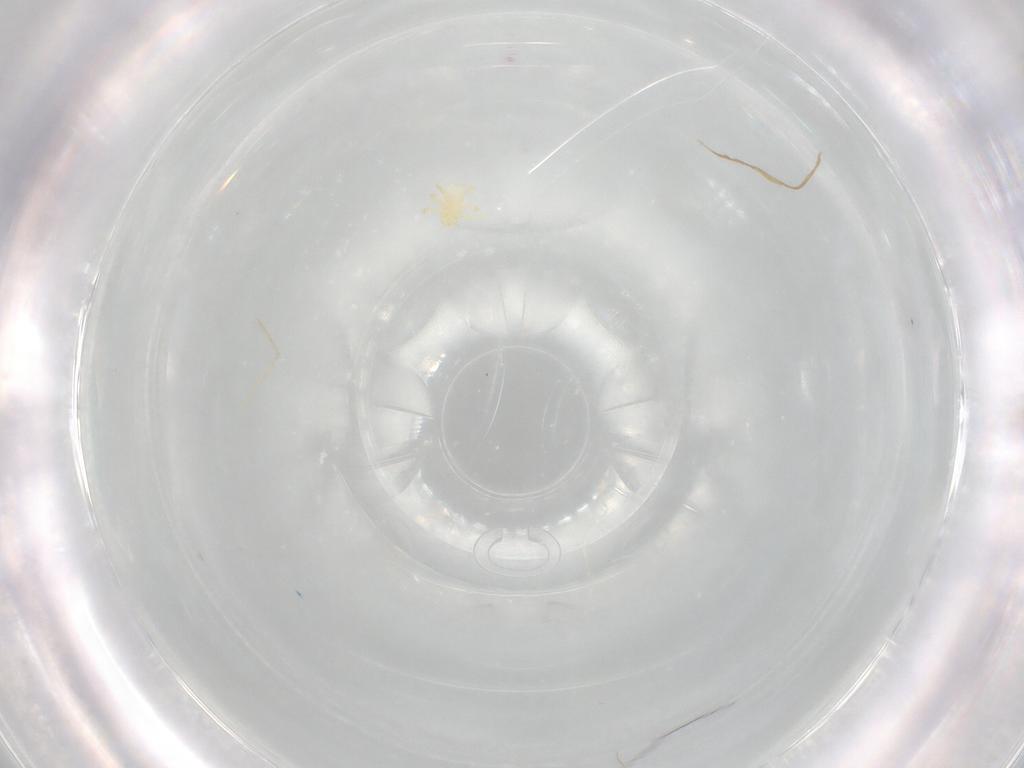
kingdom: Animalia
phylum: Arthropoda
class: Arachnida
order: Trombidiformes
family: Trombidiidae
